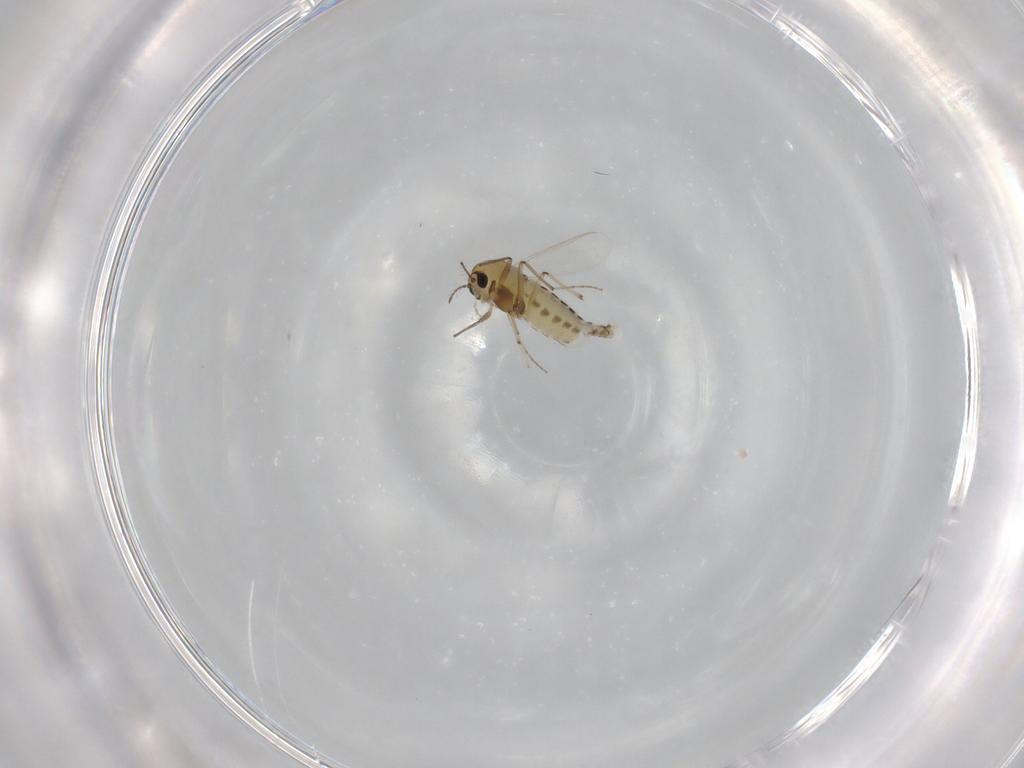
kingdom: Animalia
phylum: Arthropoda
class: Insecta
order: Diptera
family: Chironomidae
